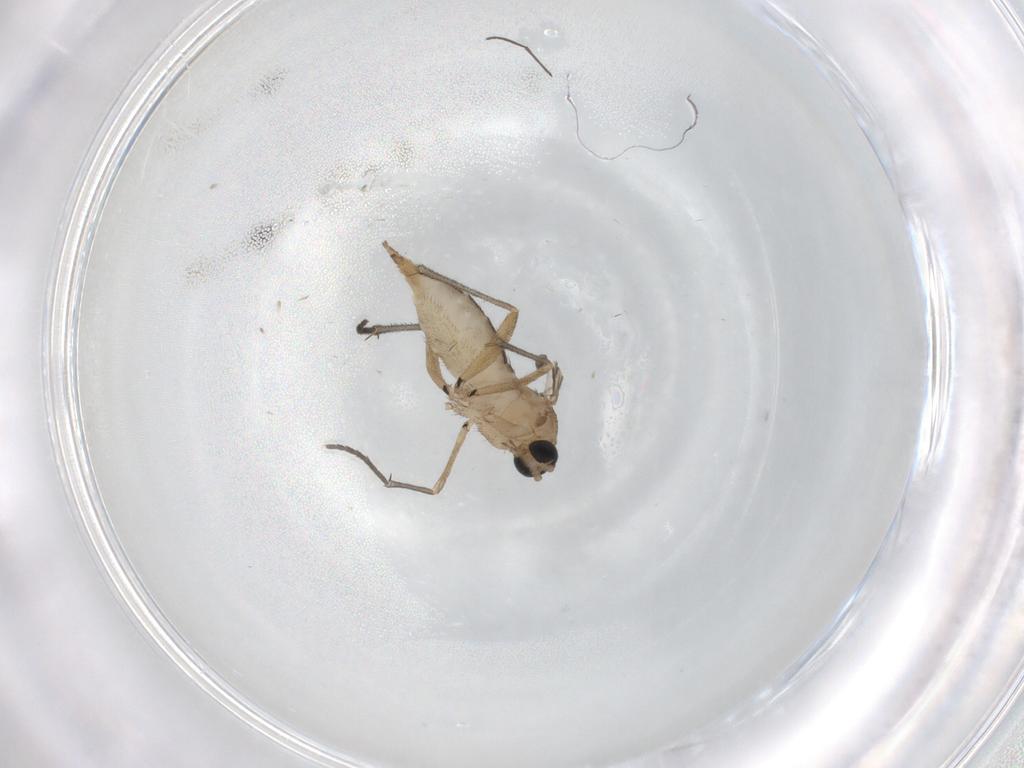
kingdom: Animalia
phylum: Arthropoda
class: Insecta
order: Diptera
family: Sciaridae
